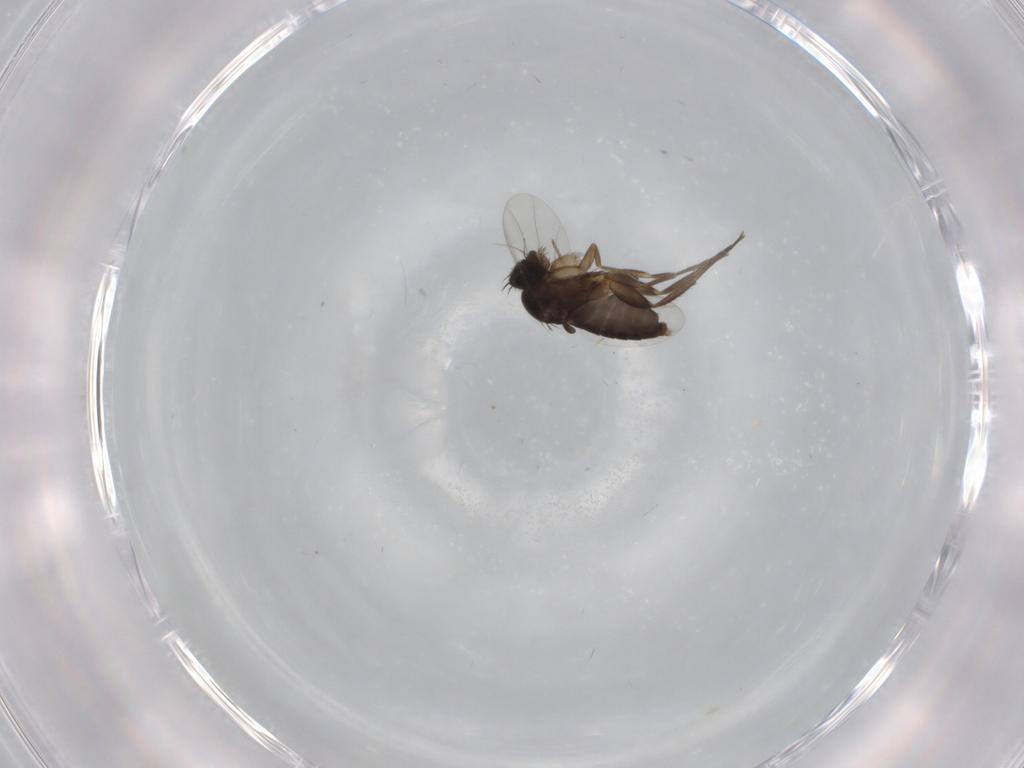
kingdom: Animalia
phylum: Arthropoda
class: Insecta
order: Diptera
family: Phoridae
